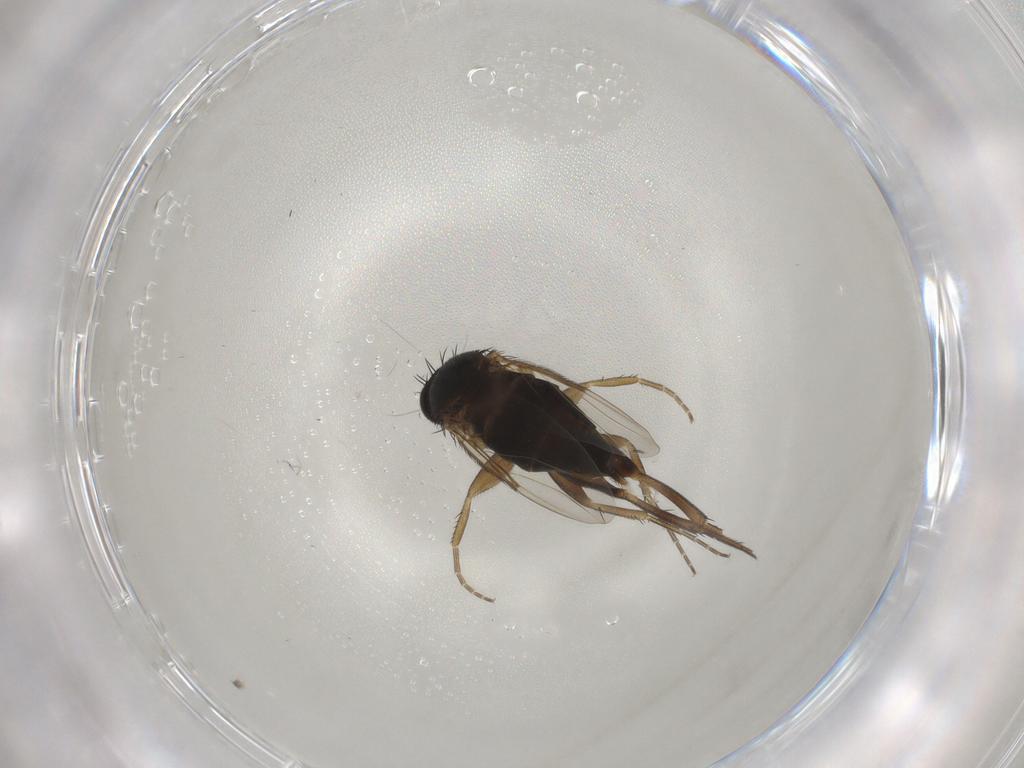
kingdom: Animalia
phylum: Arthropoda
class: Insecta
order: Diptera
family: Phoridae
